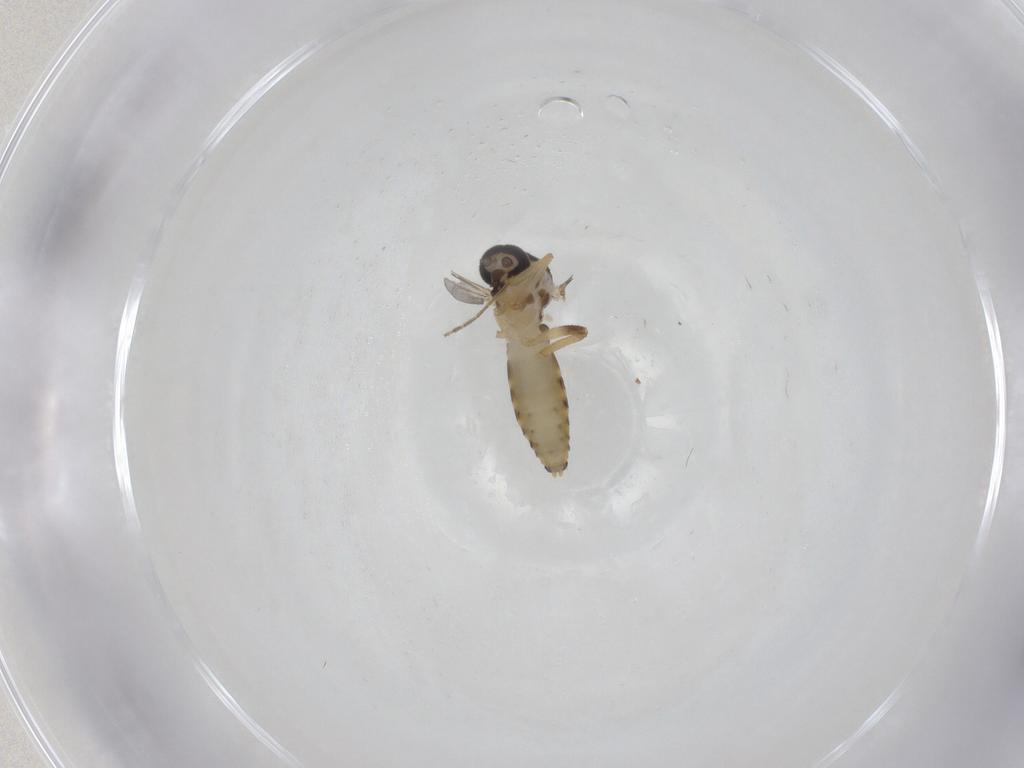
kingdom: Animalia
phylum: Arthropoda
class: Insecta
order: Diptera
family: Ceratopogonidae
